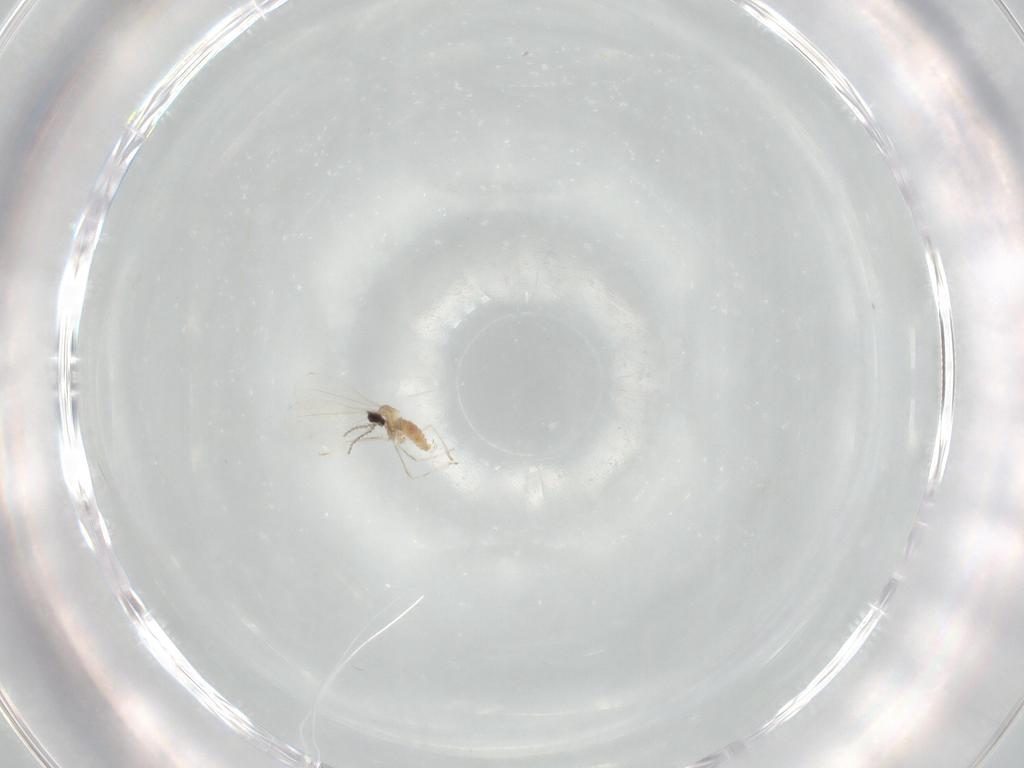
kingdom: Animalia
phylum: Arthropoda
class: Insecta
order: Diptera
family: Cecidomyiidae
